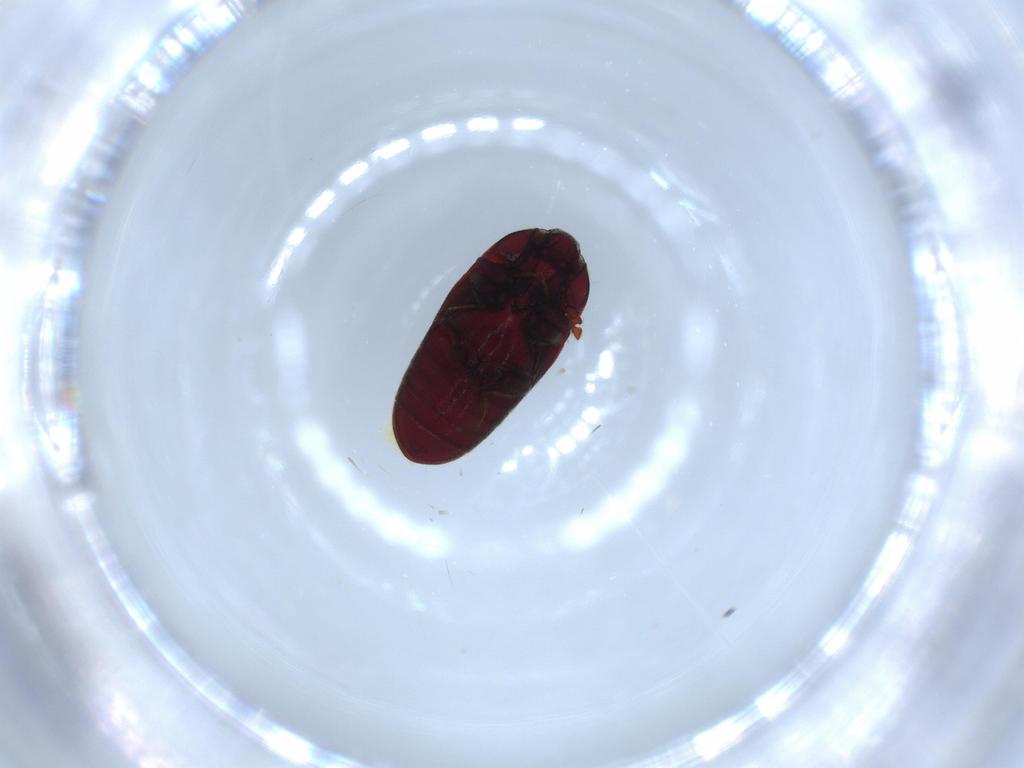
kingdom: Animalia
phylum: Arthropoda
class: Insecta
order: Coleoptera
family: Throscidae
